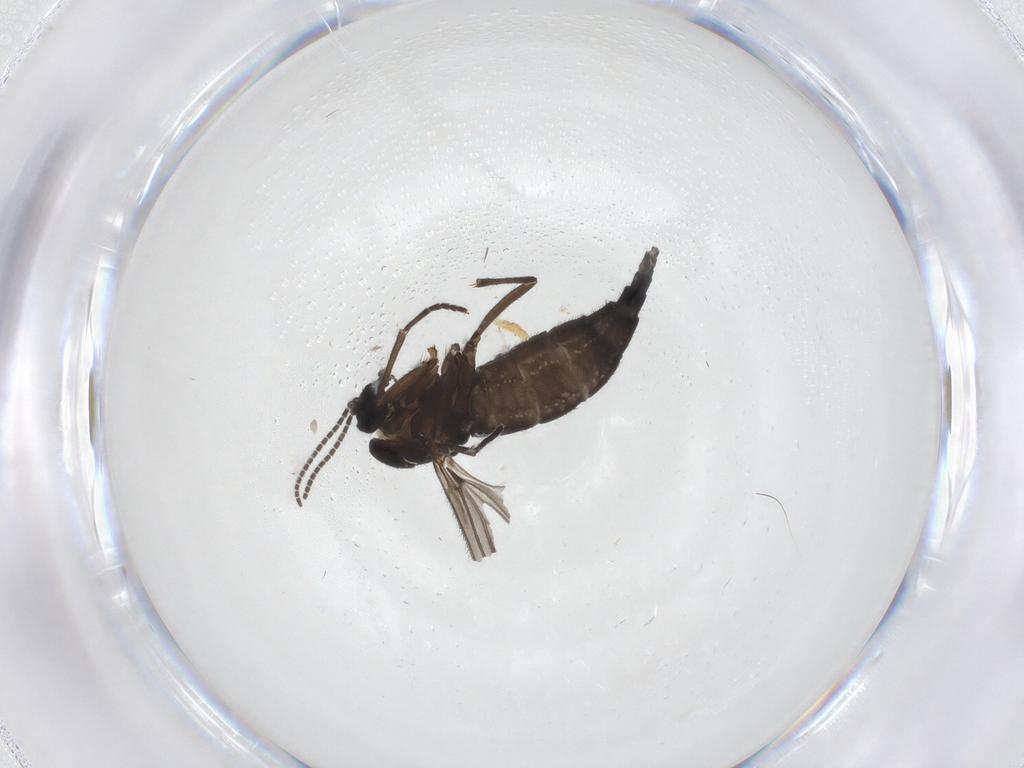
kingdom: Animalia
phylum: Arthropoda
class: Insecta
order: Diptera
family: Sciaridae
